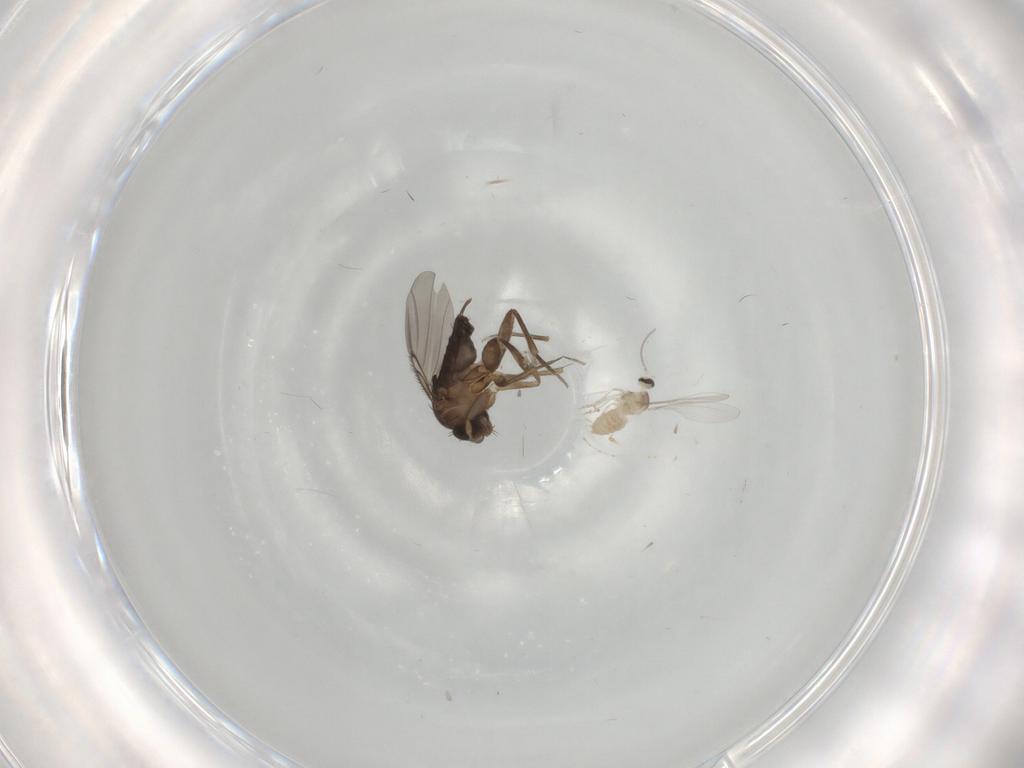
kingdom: Animalia
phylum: Arthropoda
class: Insecta
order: Diptera
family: Cecidomyiidae
